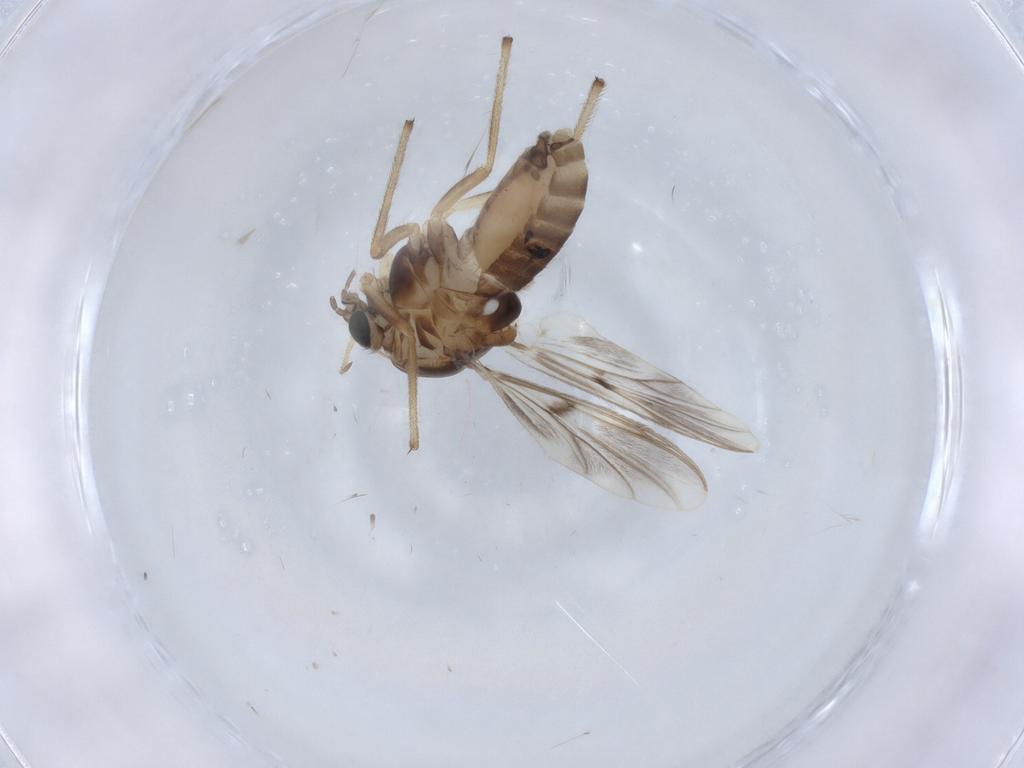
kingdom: Animalia
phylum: Arthropoda
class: Insecta
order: Diptera
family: Chironomidae
